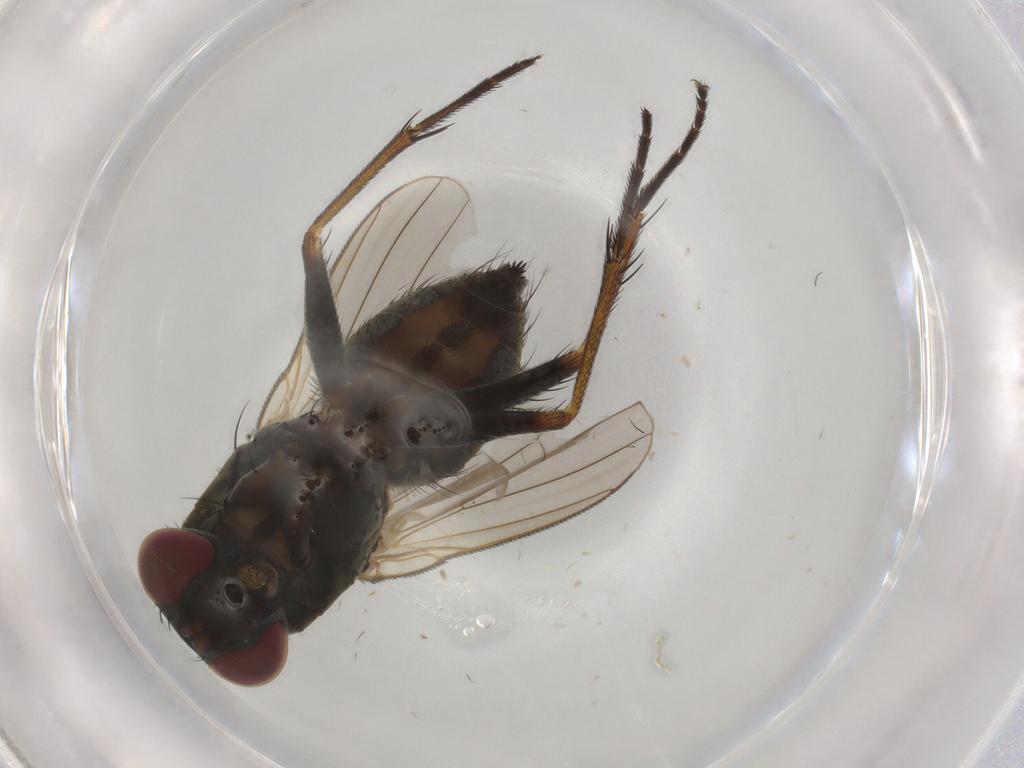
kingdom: Animalia
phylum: Arthropoda
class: Insecta
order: Diptera
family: Muscidae
